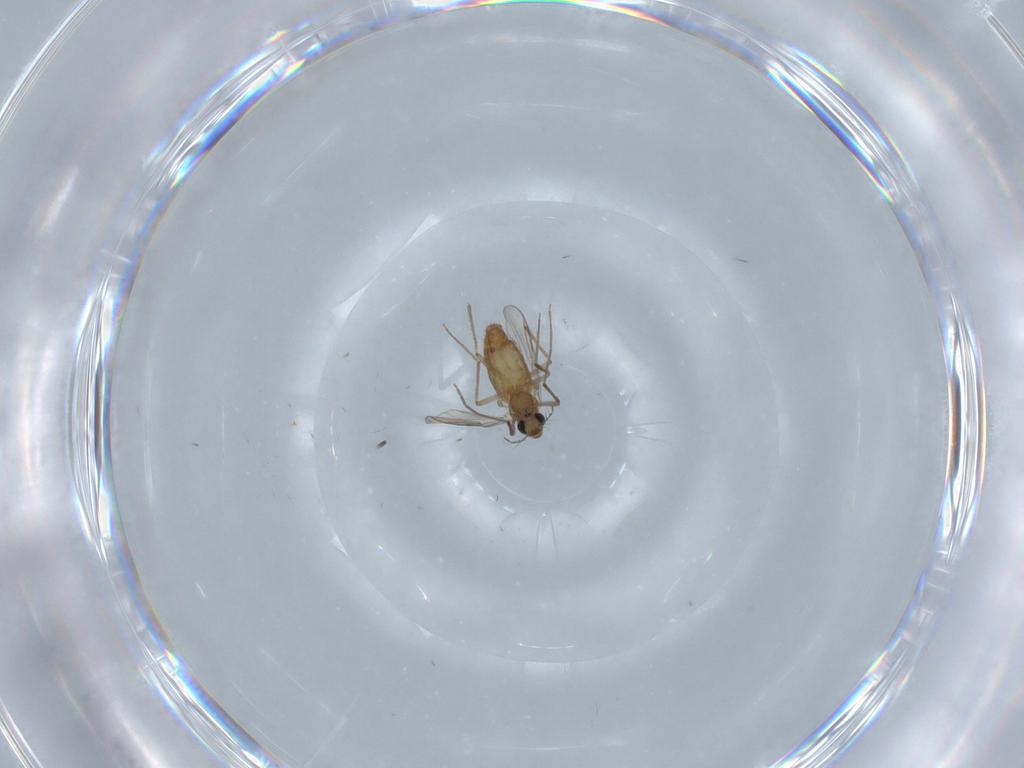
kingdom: Animalia
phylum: Arthropoda
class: Insecta
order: Diptera
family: Chironomidae
